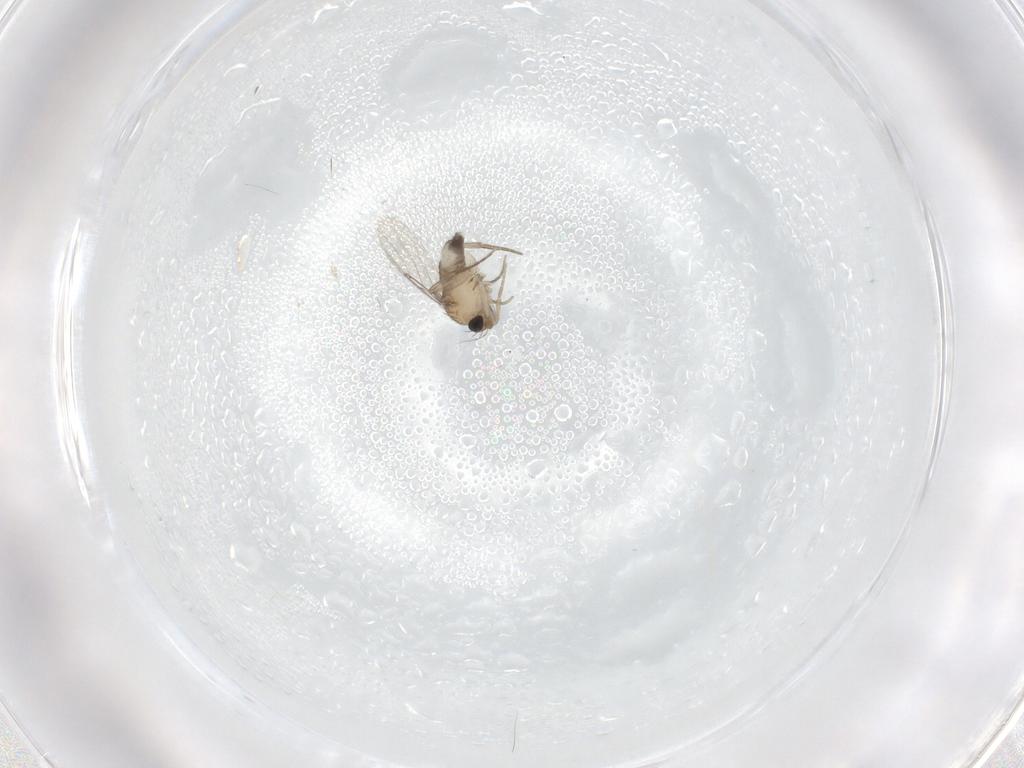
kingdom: Animalia
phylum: Arthropoda
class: Insecta
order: Diptera
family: Phoridae
